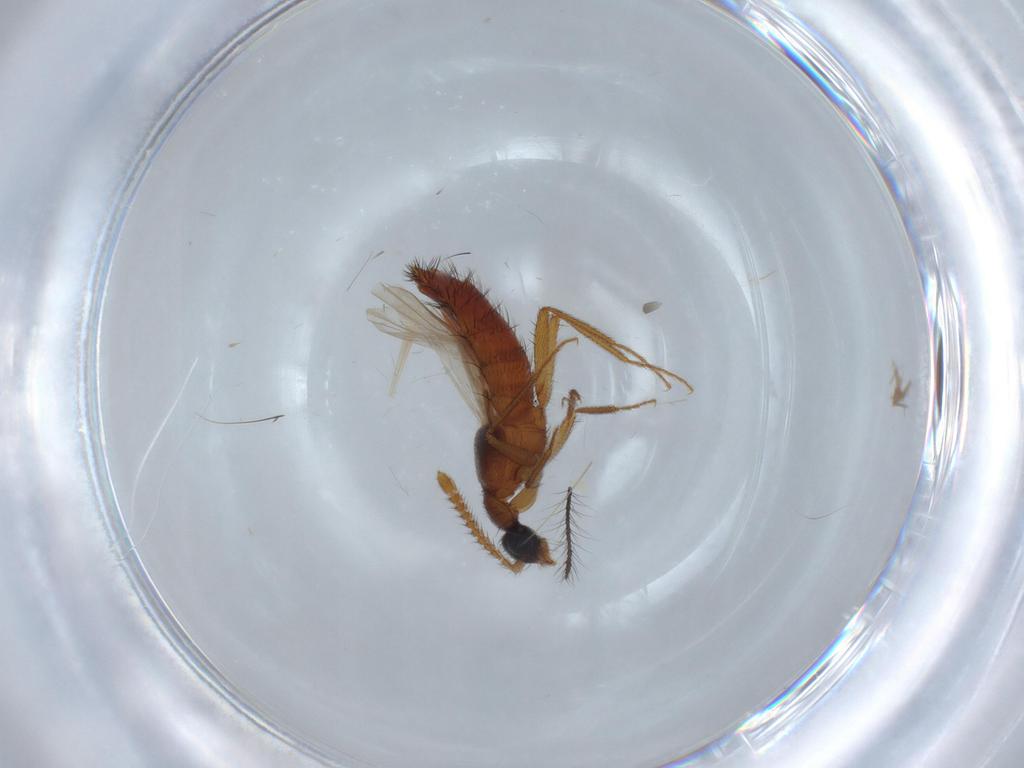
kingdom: Animalia
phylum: Arthropoda
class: Insecta
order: Coleoptera
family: Staphylinidae
